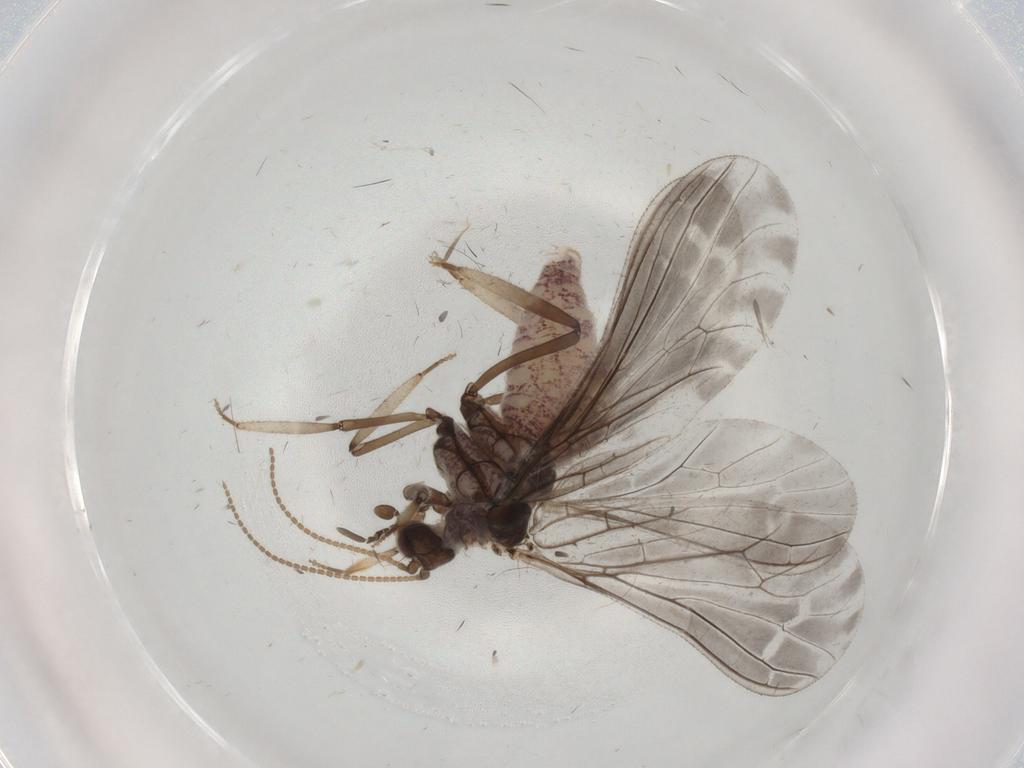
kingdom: Animalia
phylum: Arthropoda
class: Insecta
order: Neuroptera
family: Coniopterygidae
